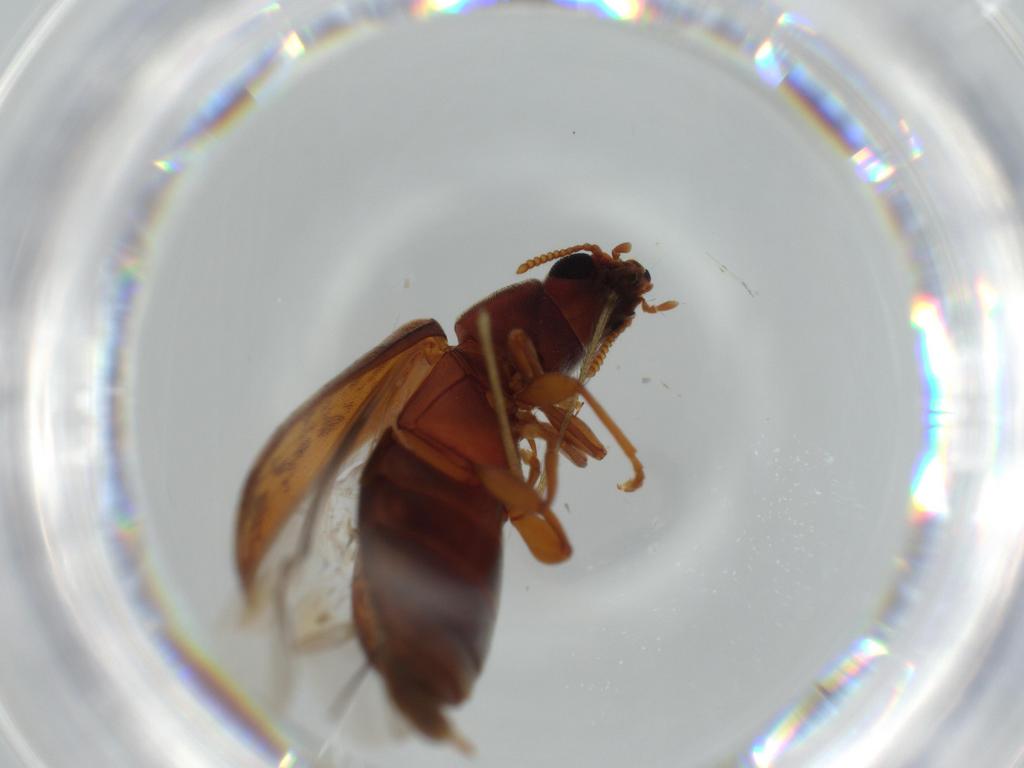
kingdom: Animalia
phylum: Arthropoda
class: Insecta
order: Coleoptera
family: Mycteridae
